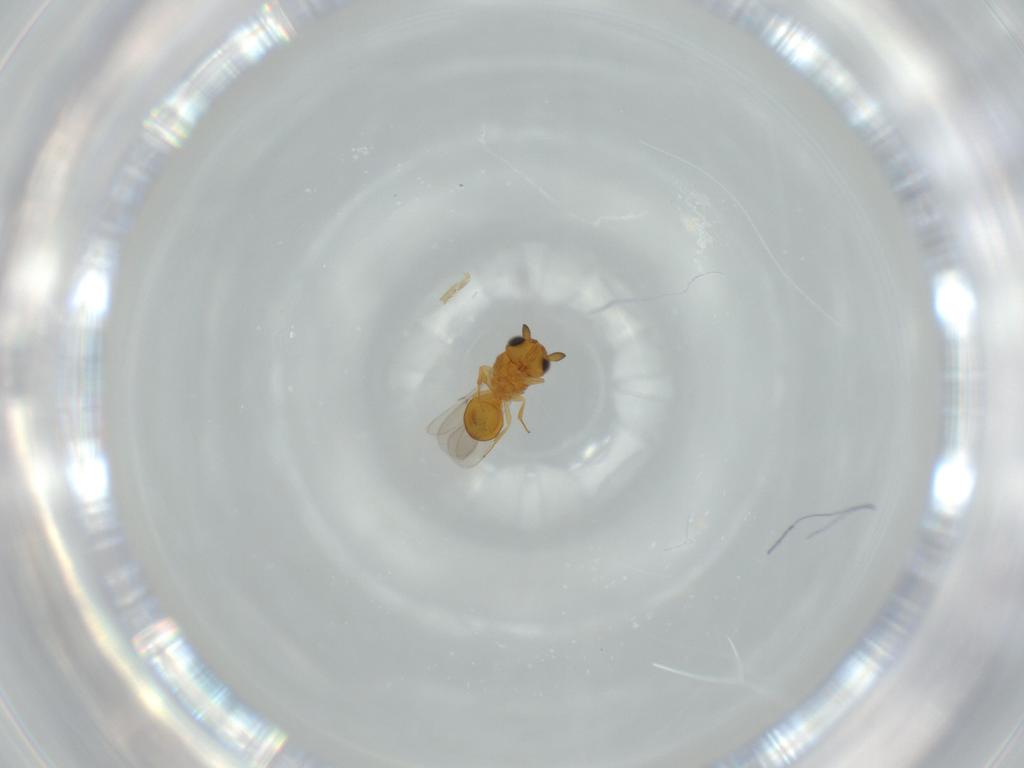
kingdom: Animalia
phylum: Arthropoda
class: Insecta
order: Hymenoptera
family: Scelionidae
